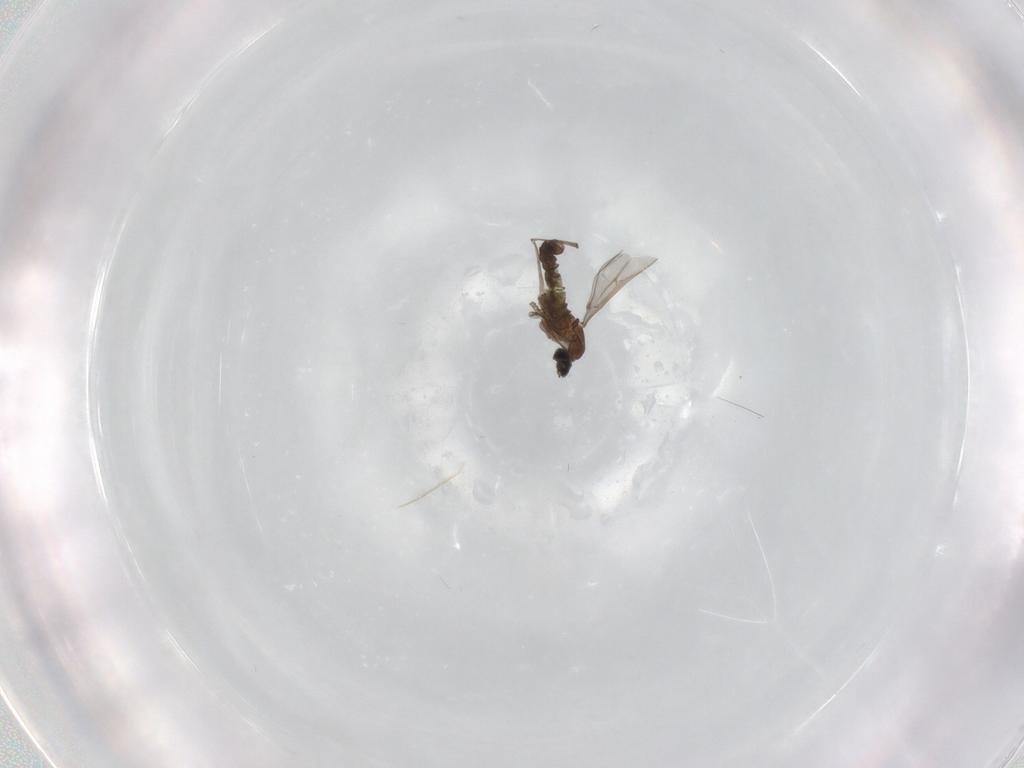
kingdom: Animalia
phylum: Arthropoda
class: Insecta
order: Diptera
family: Cecidomyiidae
